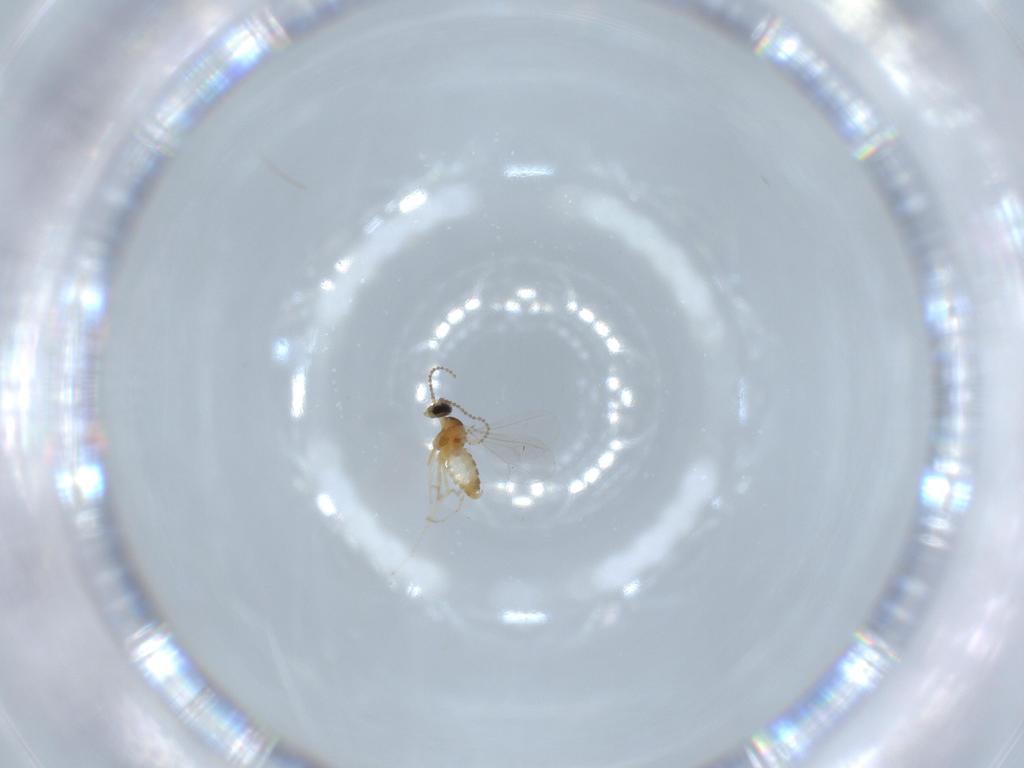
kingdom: Animalia
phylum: Arthropoda
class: Insecta
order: Diptera
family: Cecidomyiidae
